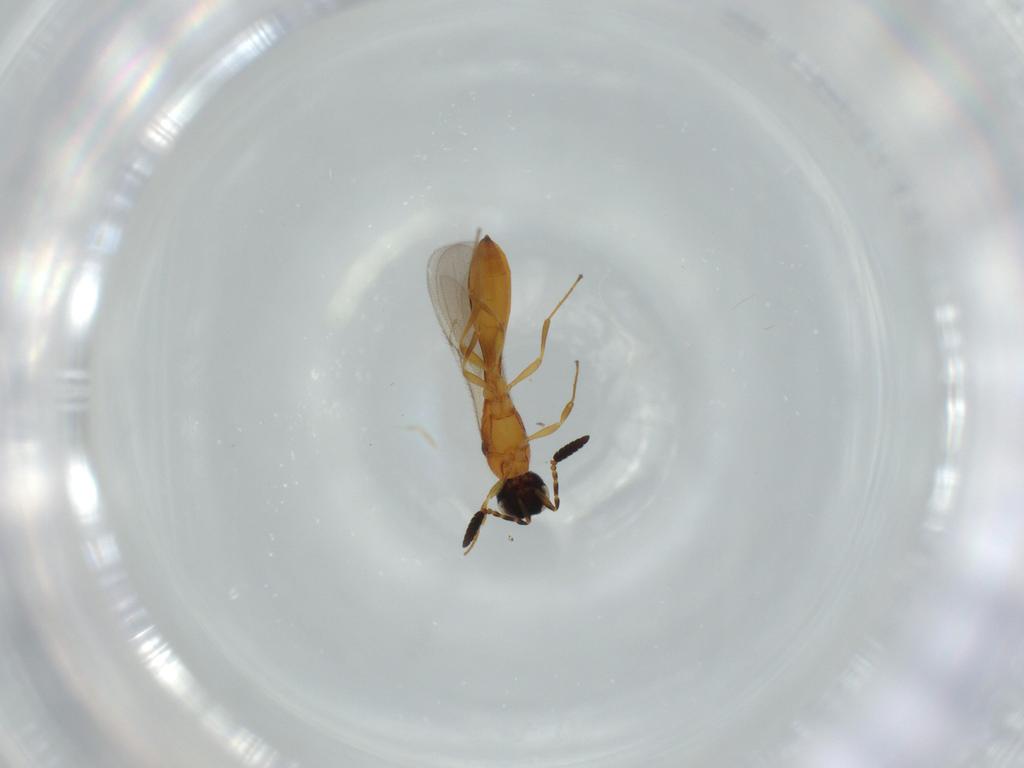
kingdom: Animalia
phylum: Arthropoda
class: Insecta
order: Hymenoptera
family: Scelionidae
